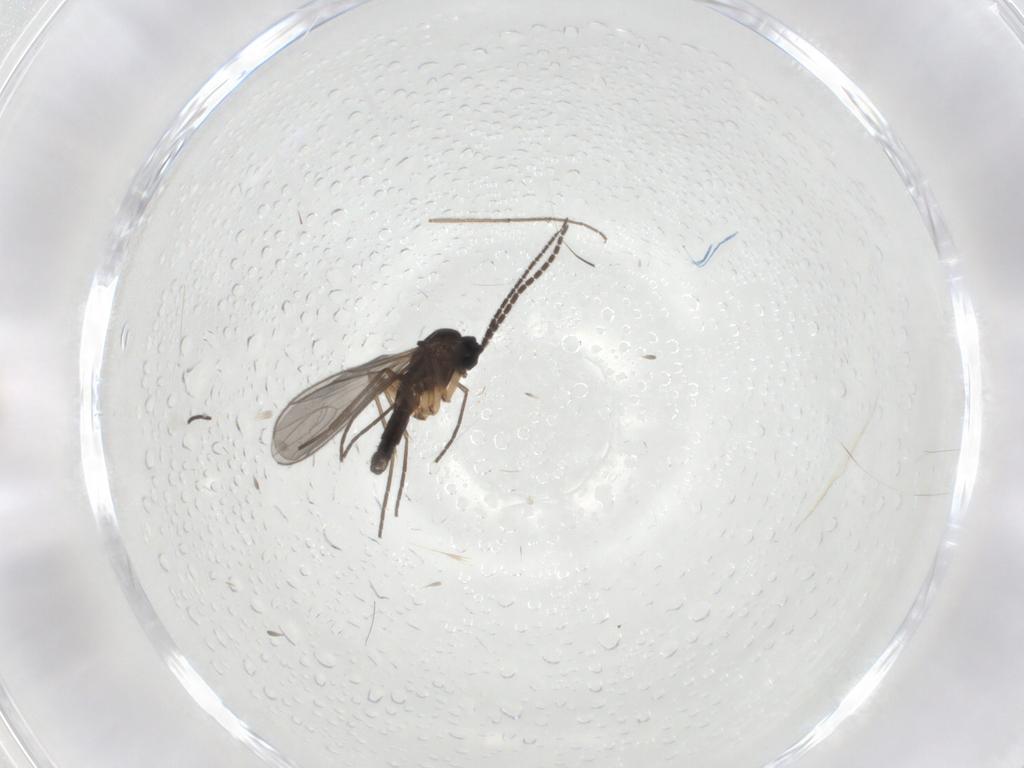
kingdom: Animalia
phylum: Arthropoda
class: Insecta
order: Diptera
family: Sciaridae
